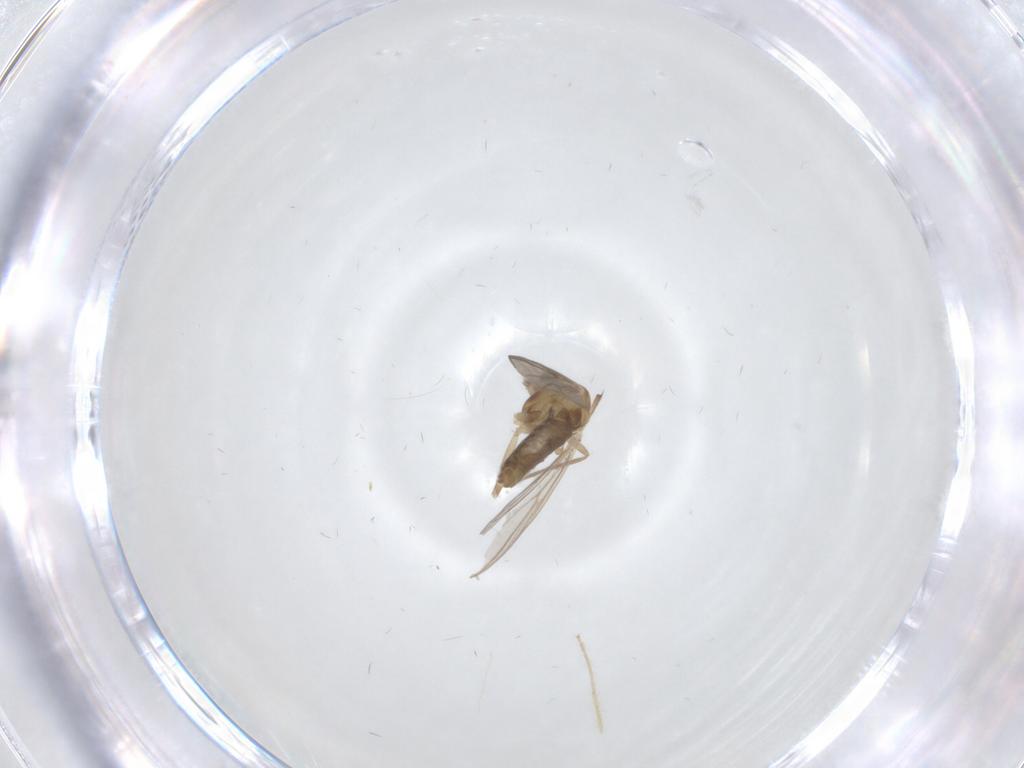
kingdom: Animalia
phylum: Arthropoda
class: Insecta
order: Diptera
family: Chironomidae
